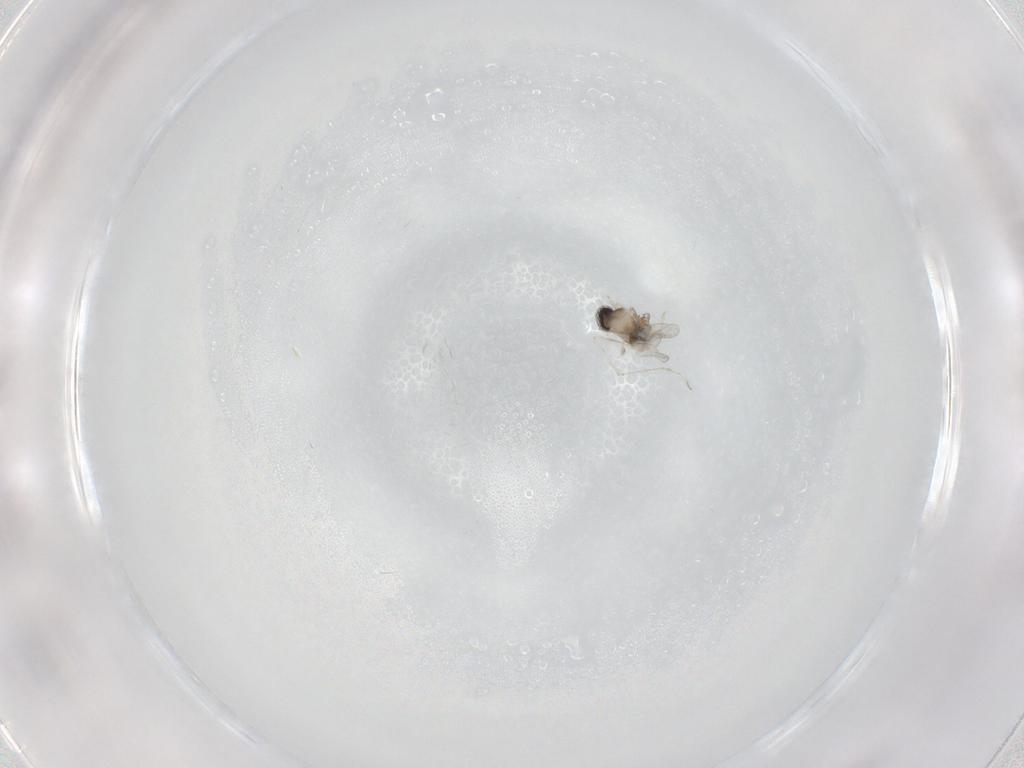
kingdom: Animalia
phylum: Arthropoda
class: Insecta
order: Diptera
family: Cecidomyiidae
